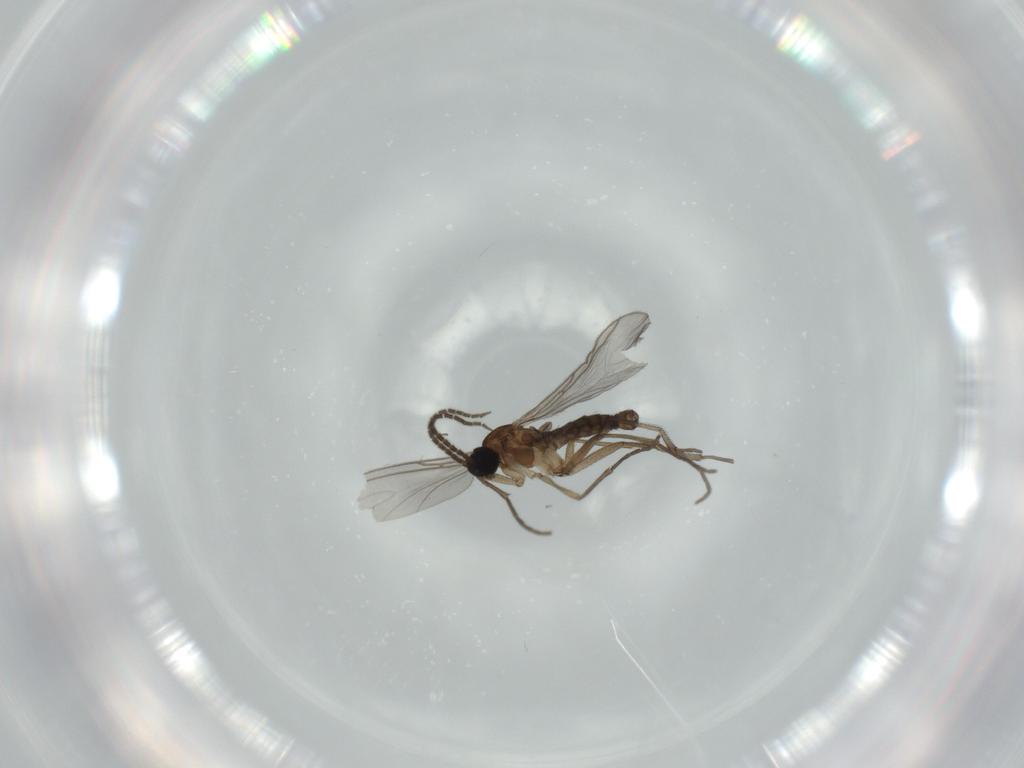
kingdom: Animalia
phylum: Arthropoda
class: Insecta
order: Diptera
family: Sciaridae
